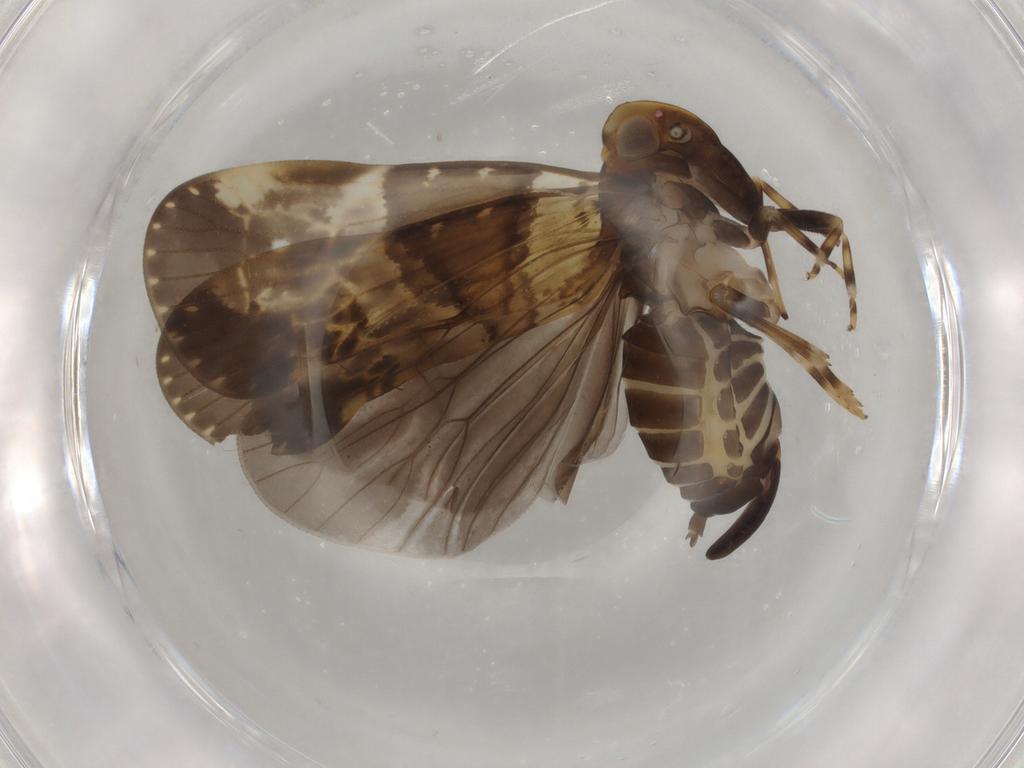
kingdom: Animalia
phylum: Arthropoda
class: Insecta
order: Hemiptera
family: Cixiidae
